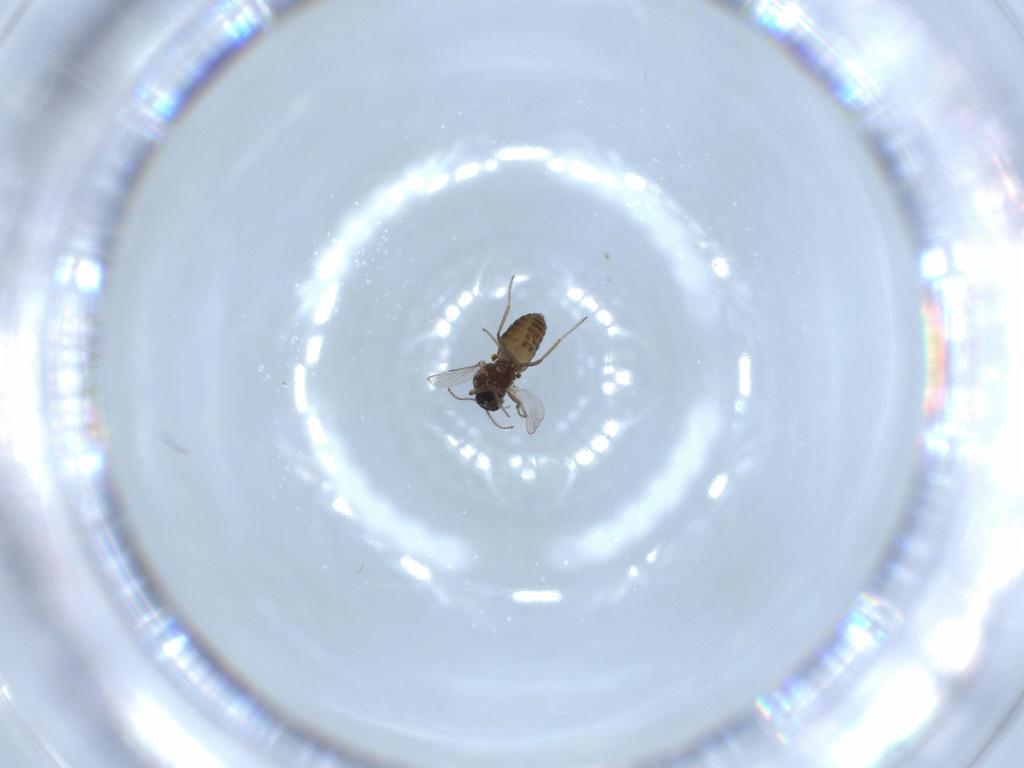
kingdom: Animalia
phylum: Arthropoda
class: Insecta
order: Diptera
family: Ceratopogonidae
